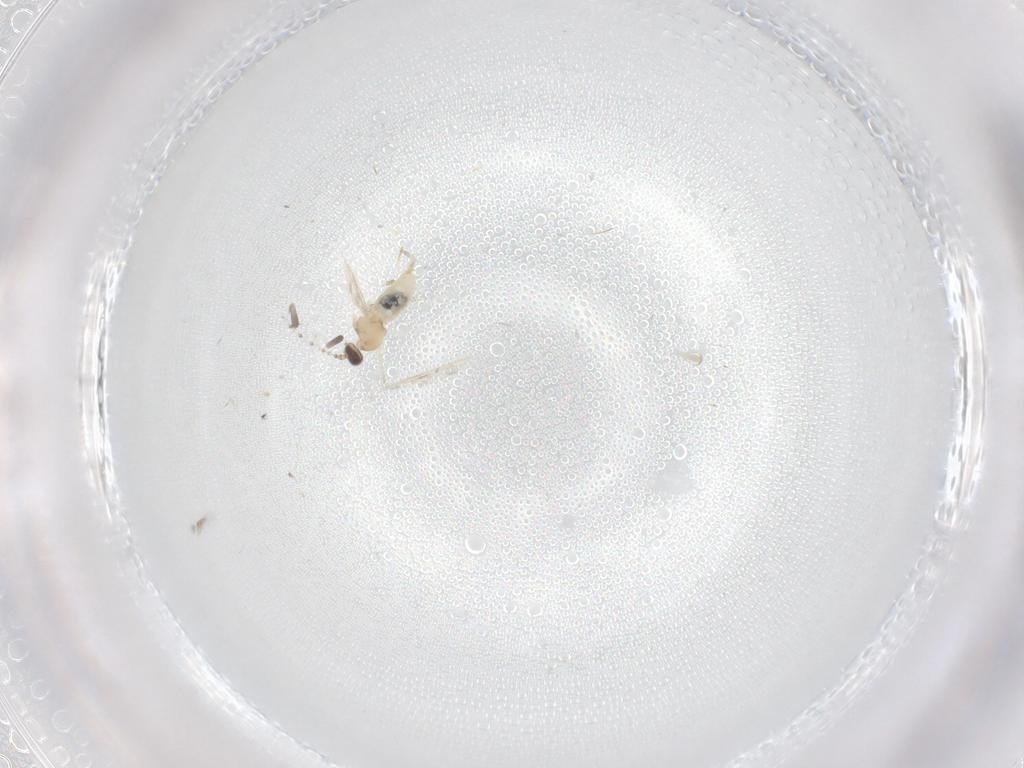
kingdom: Animalia
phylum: Arthropoda
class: Insecta
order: Diptera
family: Cecidomyiidae
